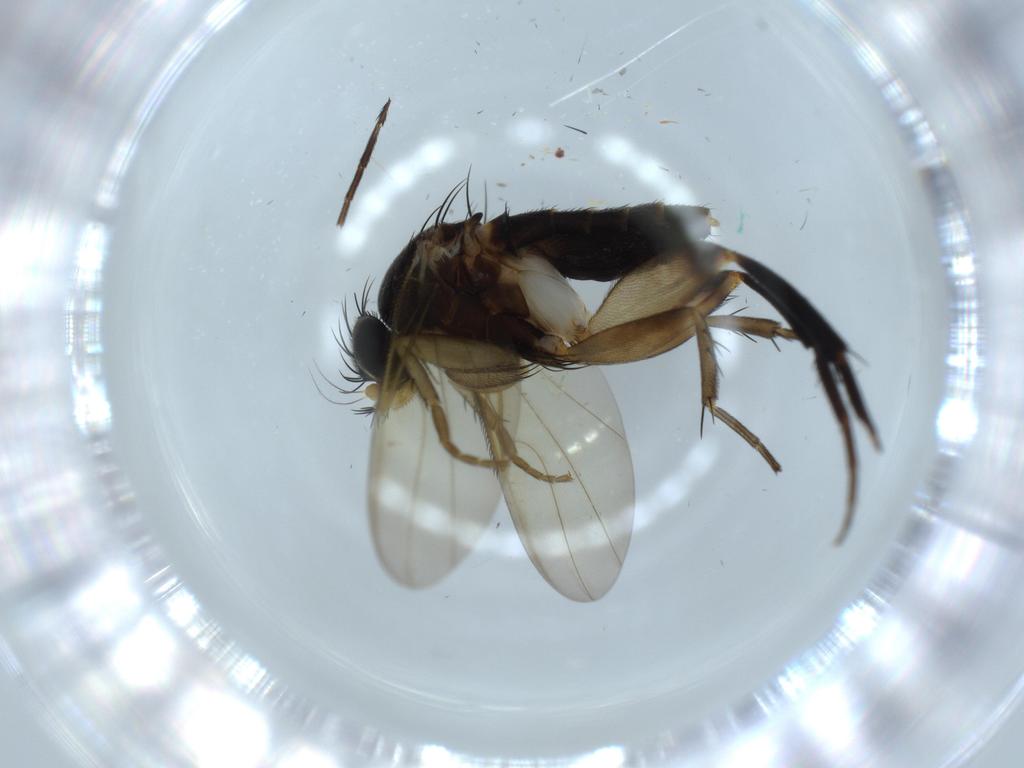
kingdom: Animalia
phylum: Arthropoda
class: Insecta
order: Diptera
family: Phoridae
